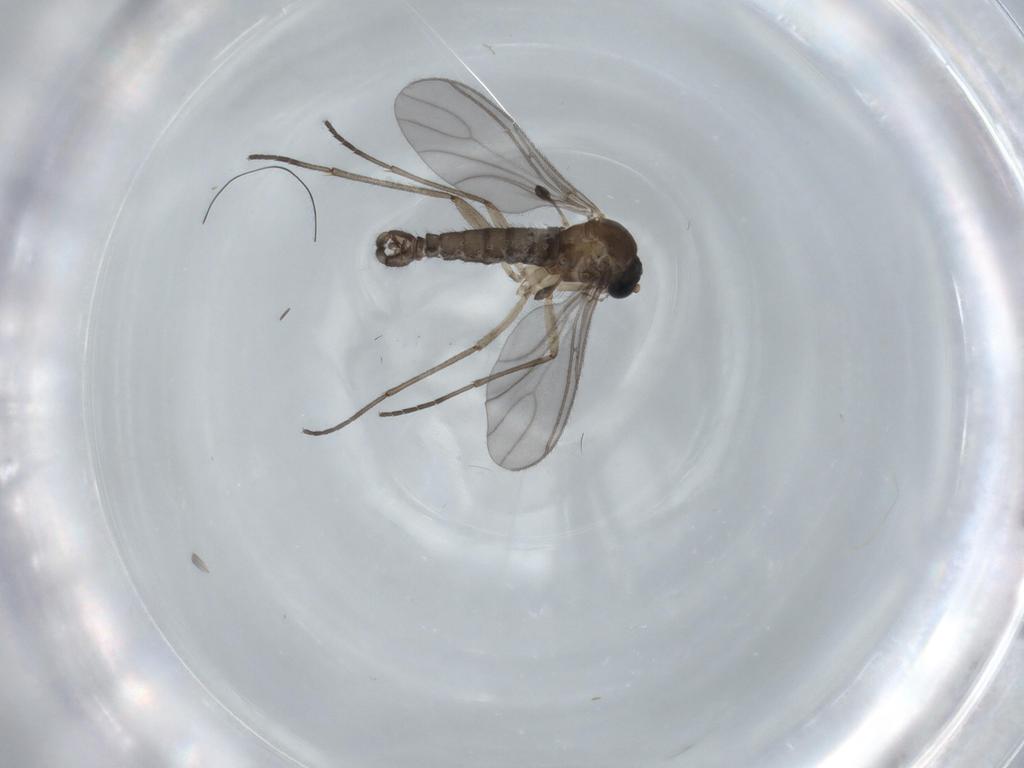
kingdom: Animalia
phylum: Arthropoda
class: Insecta
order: Diptera
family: Sciaridae
